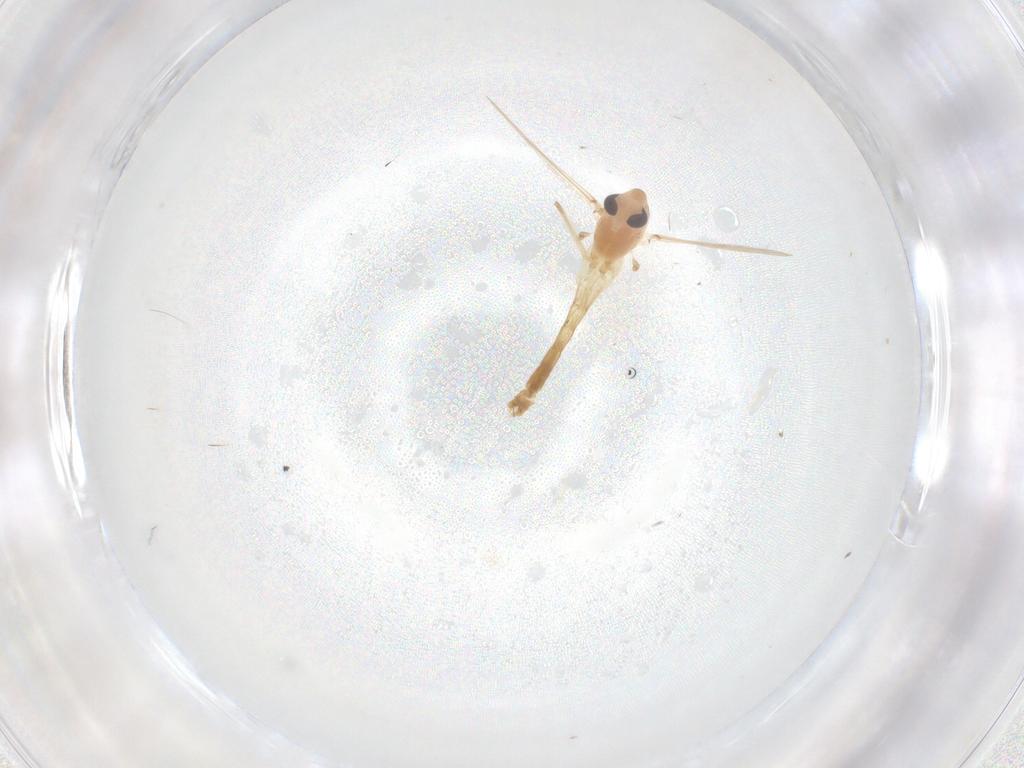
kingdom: Animalia
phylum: Arthropoda
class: Insecta
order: Diptera
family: Chironomidae
